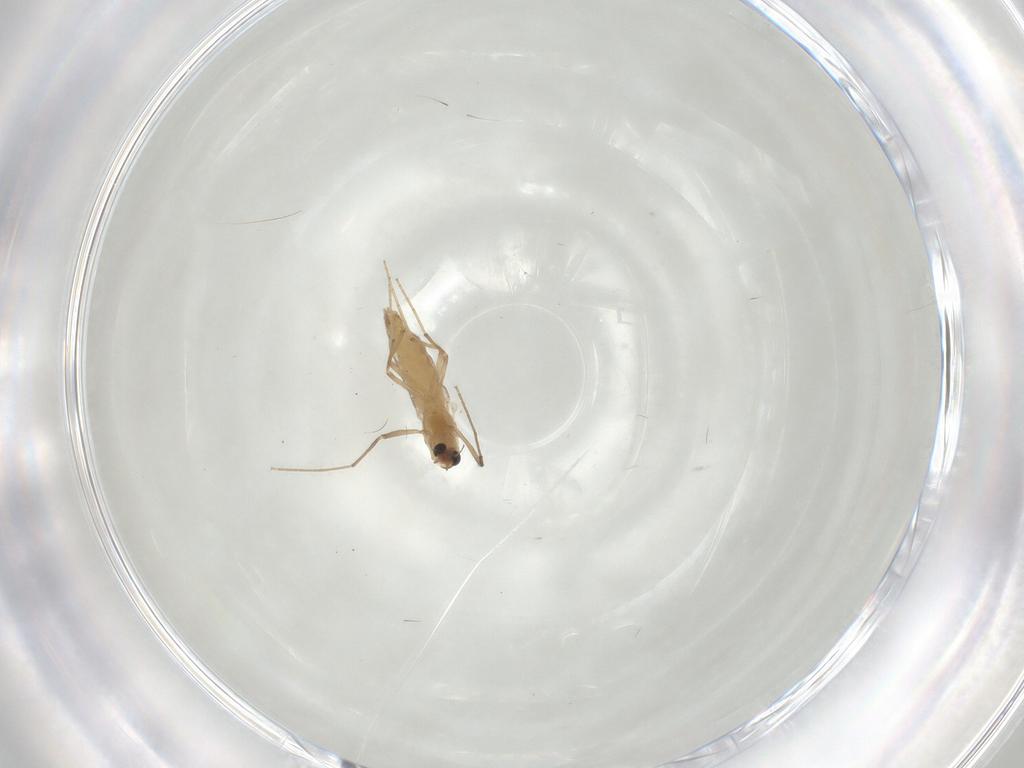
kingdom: Animalia
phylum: Arthropoda
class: Insecta
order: Diptera
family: Chironomidae
